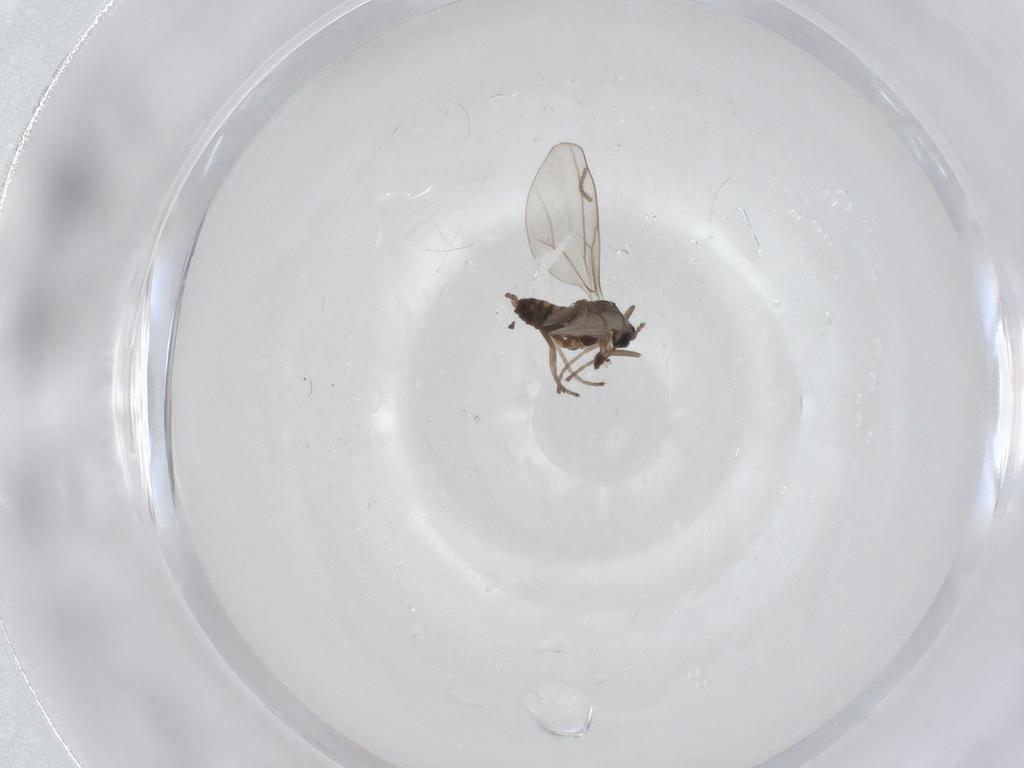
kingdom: Animalia
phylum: Arthropoda
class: Insecta
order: Diptera
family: Cecidomyiidae
